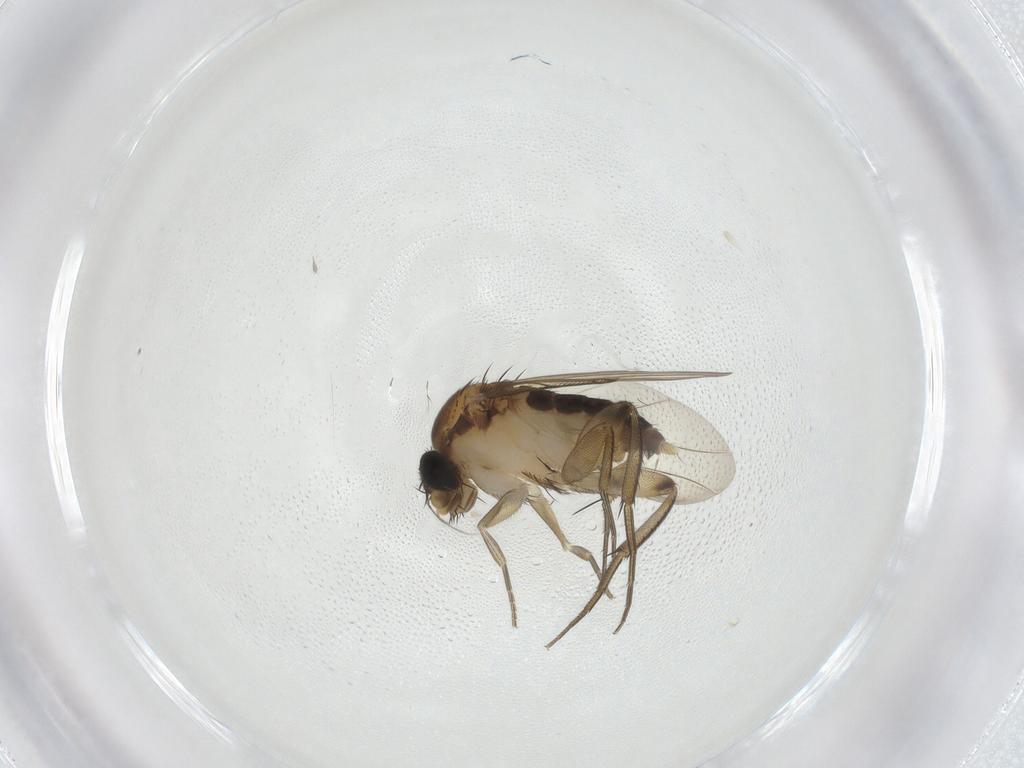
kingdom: Animalia
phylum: Arthropoda
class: Insecta
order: Diptera
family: Phoridae
